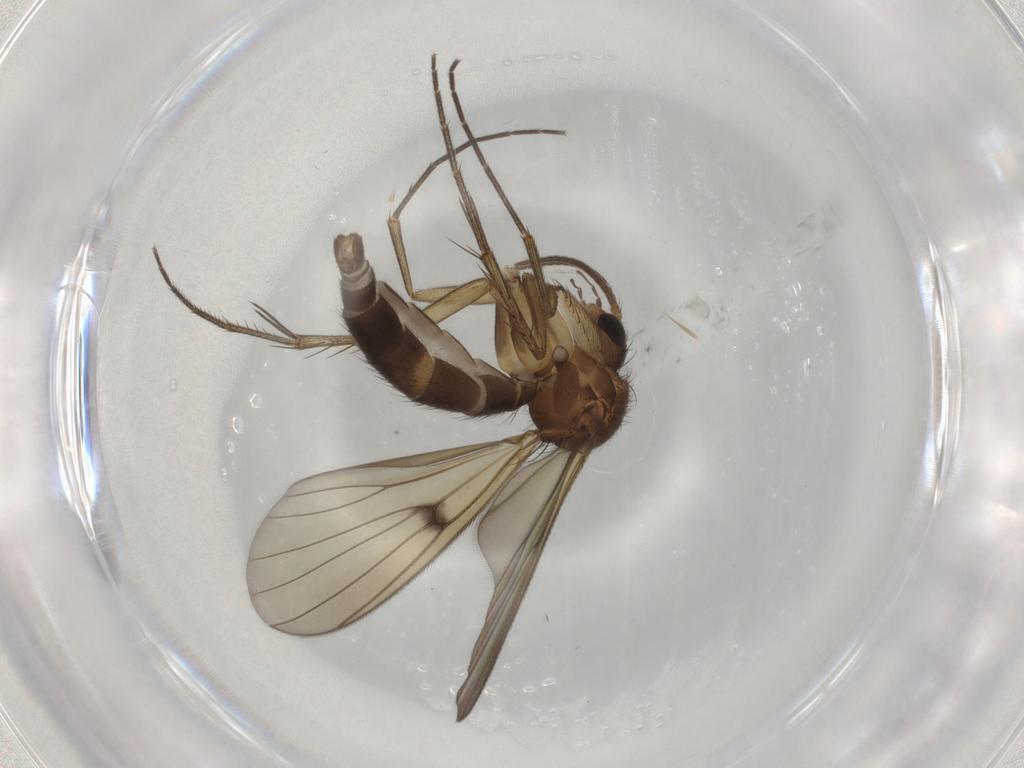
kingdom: Animalia
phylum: Arthropoda
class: Insecta
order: Diptera
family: Mycetophilidae
